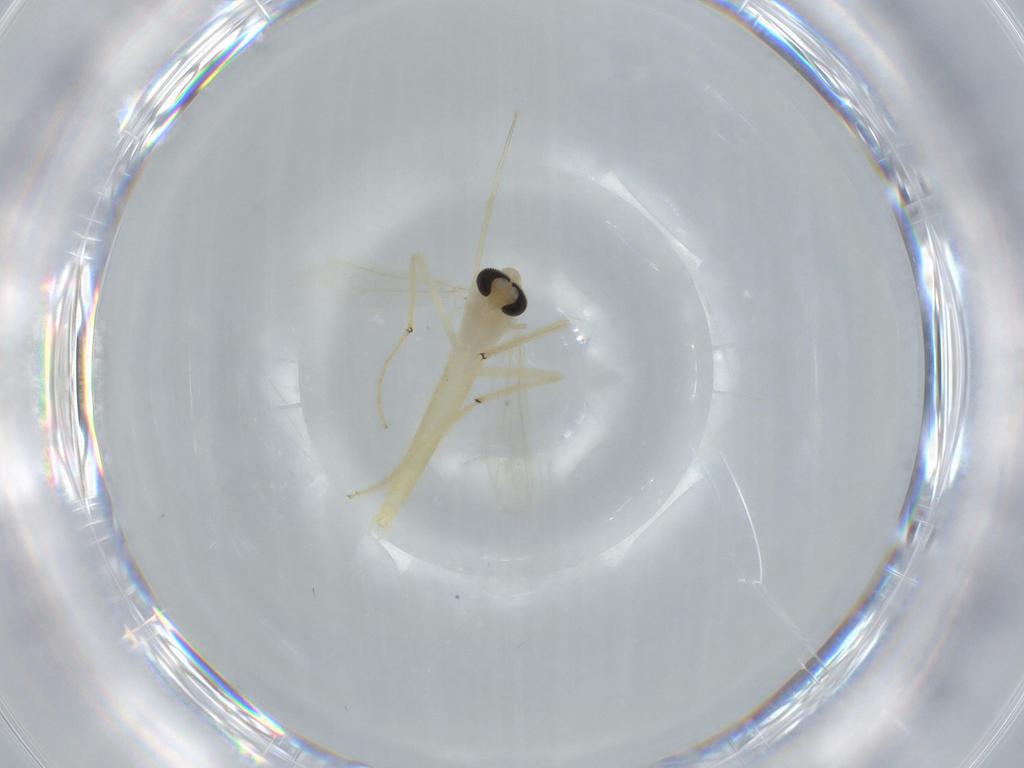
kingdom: Animalia
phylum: Arthropoda
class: Insecta
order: Diptera
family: Chironomidae
